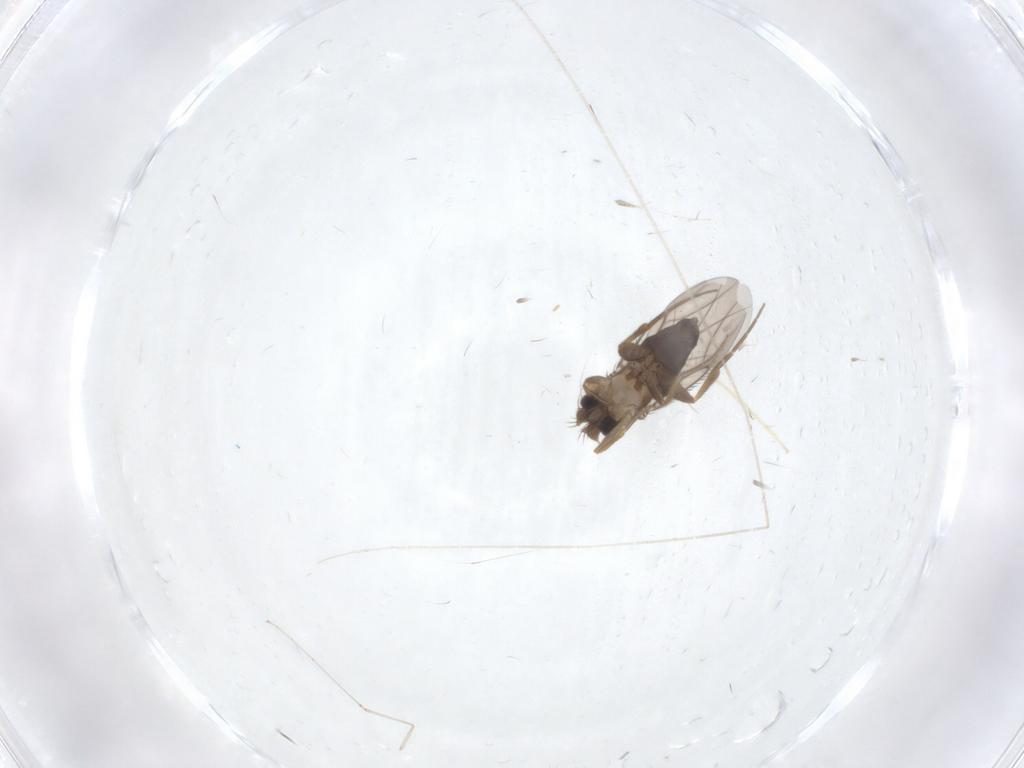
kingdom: Animalia
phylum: Arthropoda
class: Insecta
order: Diptera
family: Phoridae
